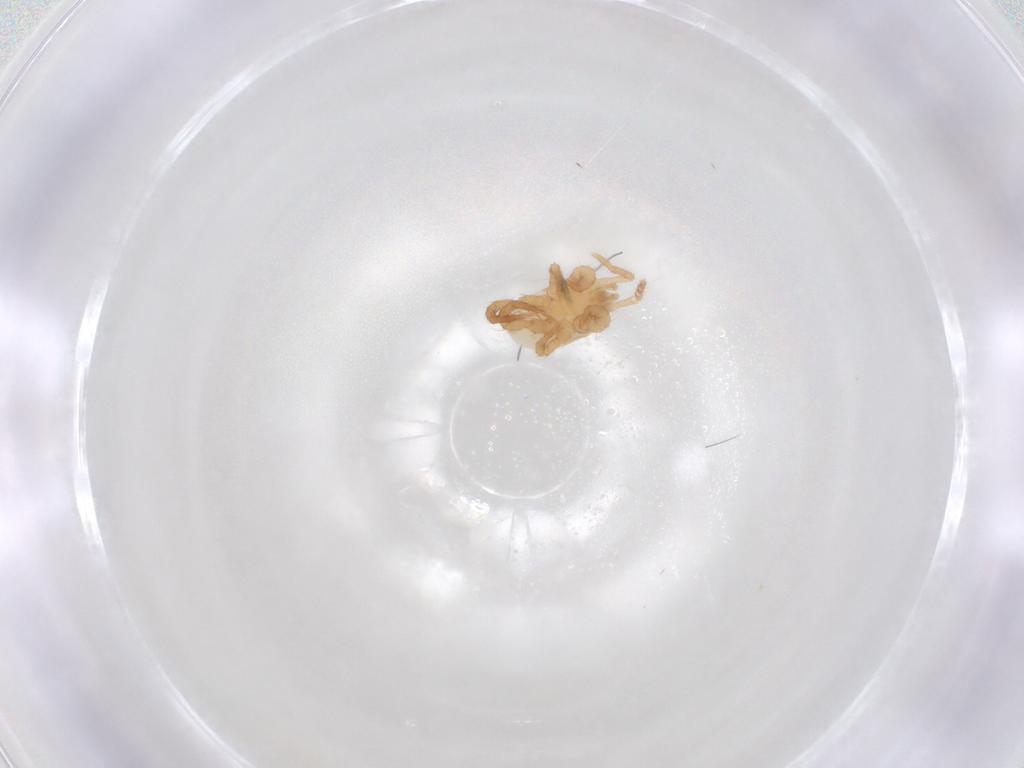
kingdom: Animalia
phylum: Arthropoda
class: Arachnida
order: Mesostigmata
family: Parasitidae
